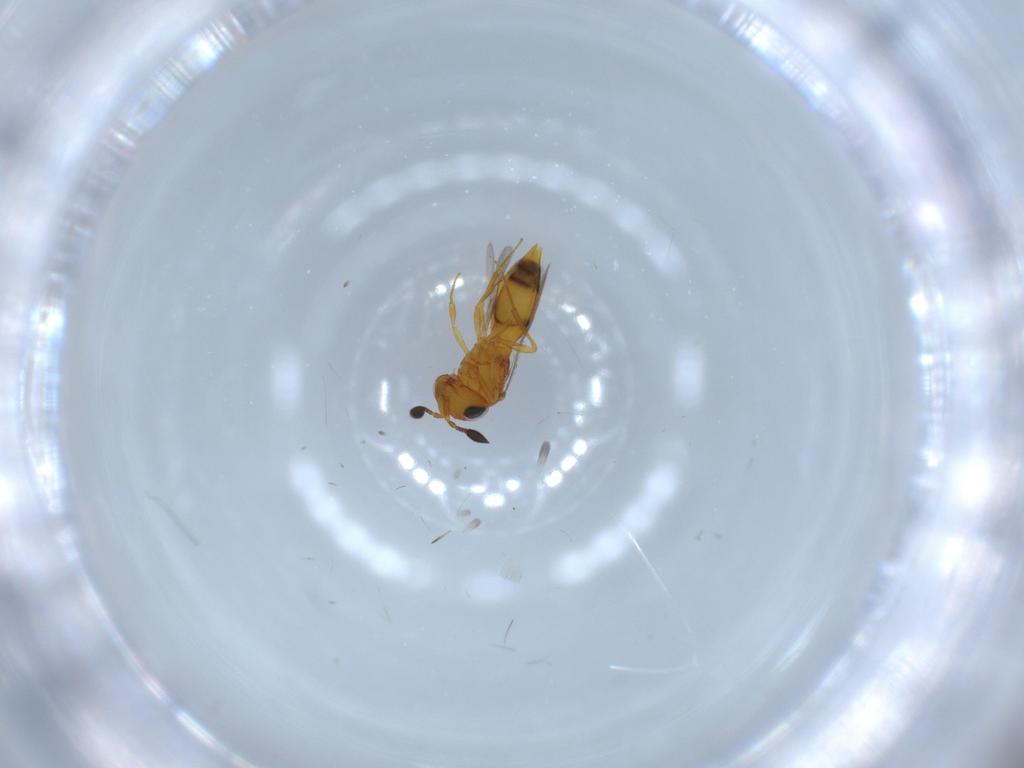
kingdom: Animalia
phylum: Arthropoda
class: Insecta
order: Hymenoptera
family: Scelionidae
